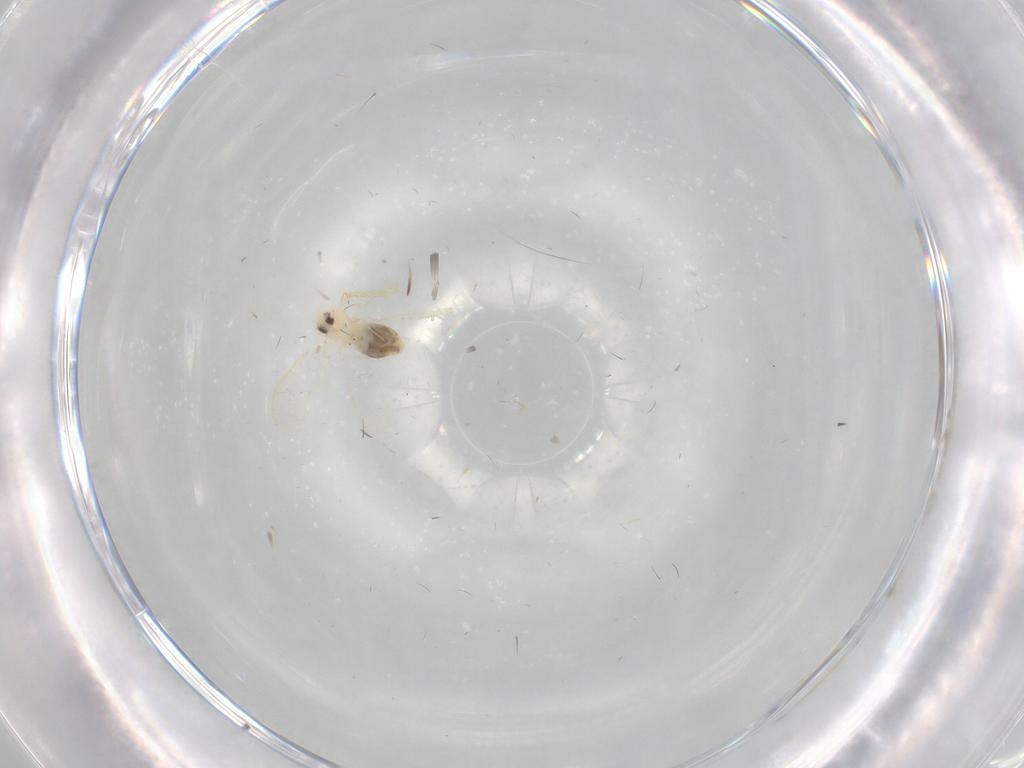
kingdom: Animalia
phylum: Arthropoda
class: Insecta
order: Hemiptera
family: Aleyrodidae
